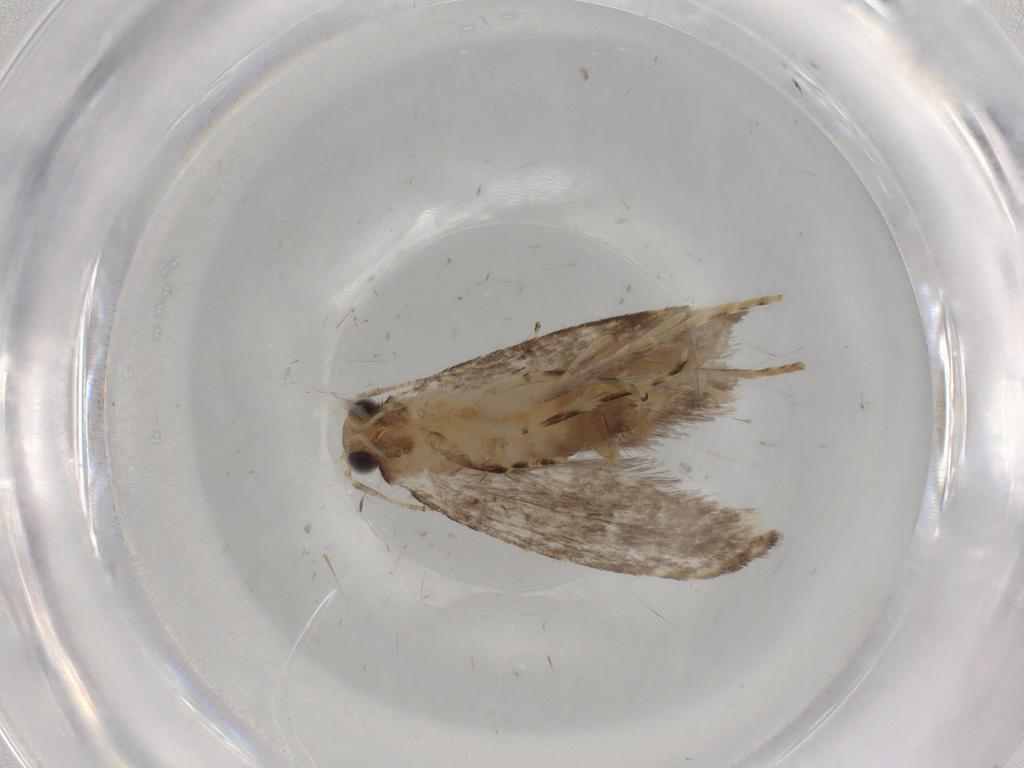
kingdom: Animalia
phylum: Arthropoda
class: Insecta
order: Lepidoptera
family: Tineidae
